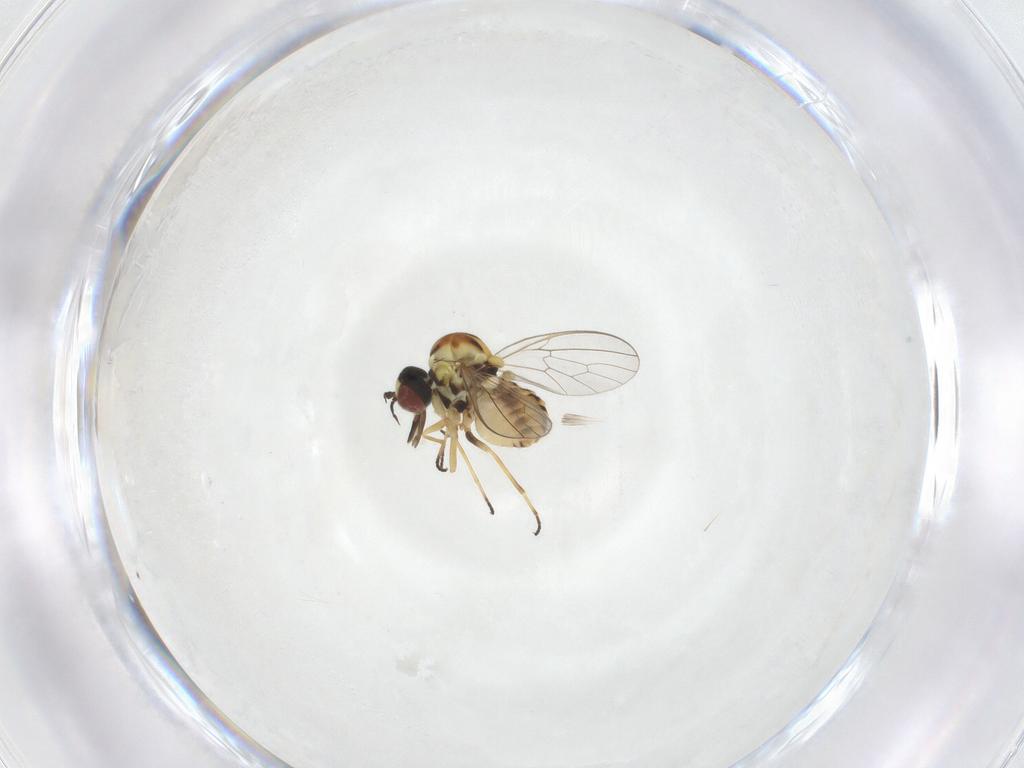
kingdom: Animalia
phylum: Arthropoda
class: Insecta
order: Diptera
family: Bombyliidae
